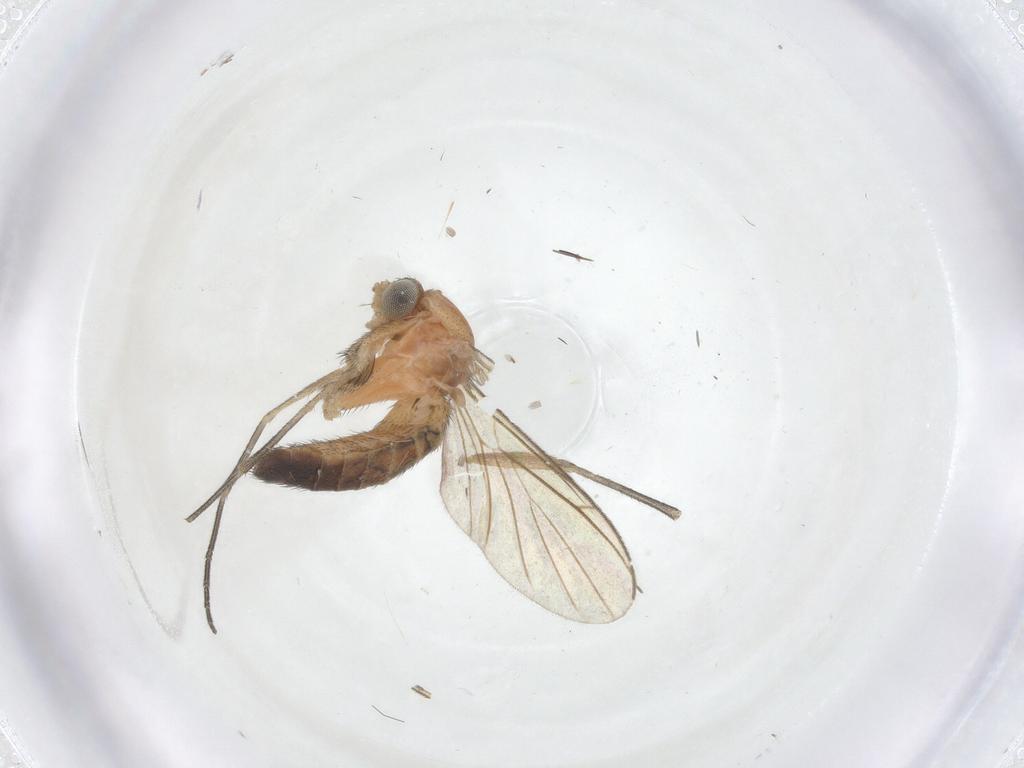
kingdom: Animalia
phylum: Arthropoda
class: Insecta
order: Diptera
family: Keroplatidae
